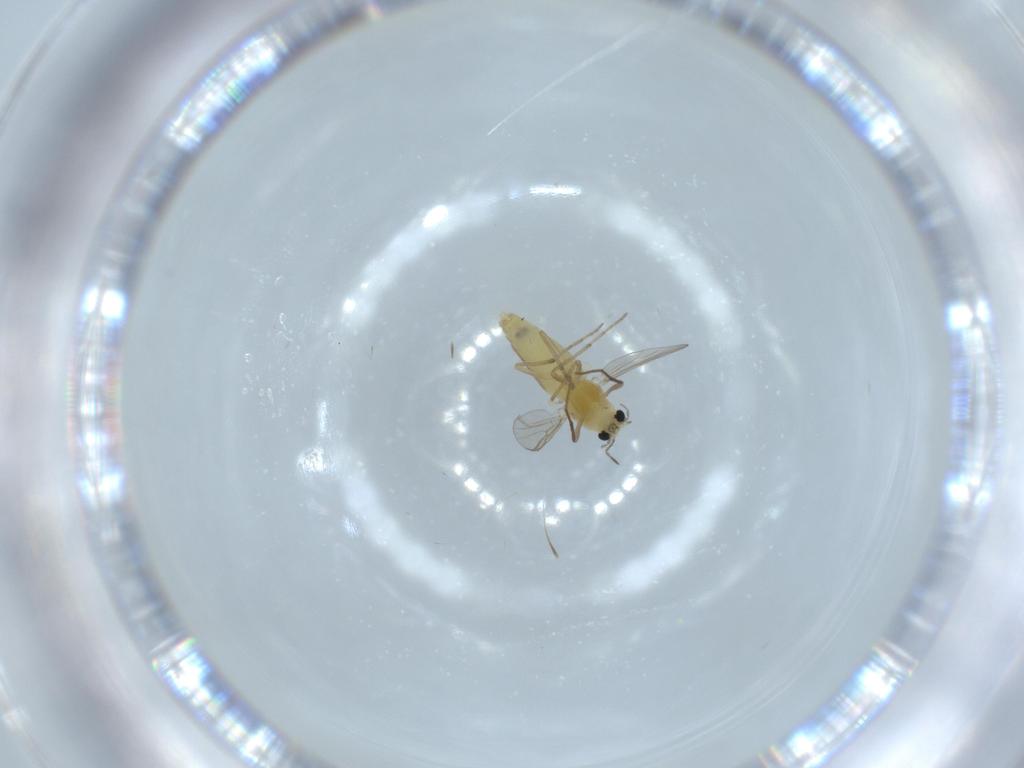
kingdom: Animalia
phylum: Arthropoda
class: Insecta
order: Diptera
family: Chironomidae
